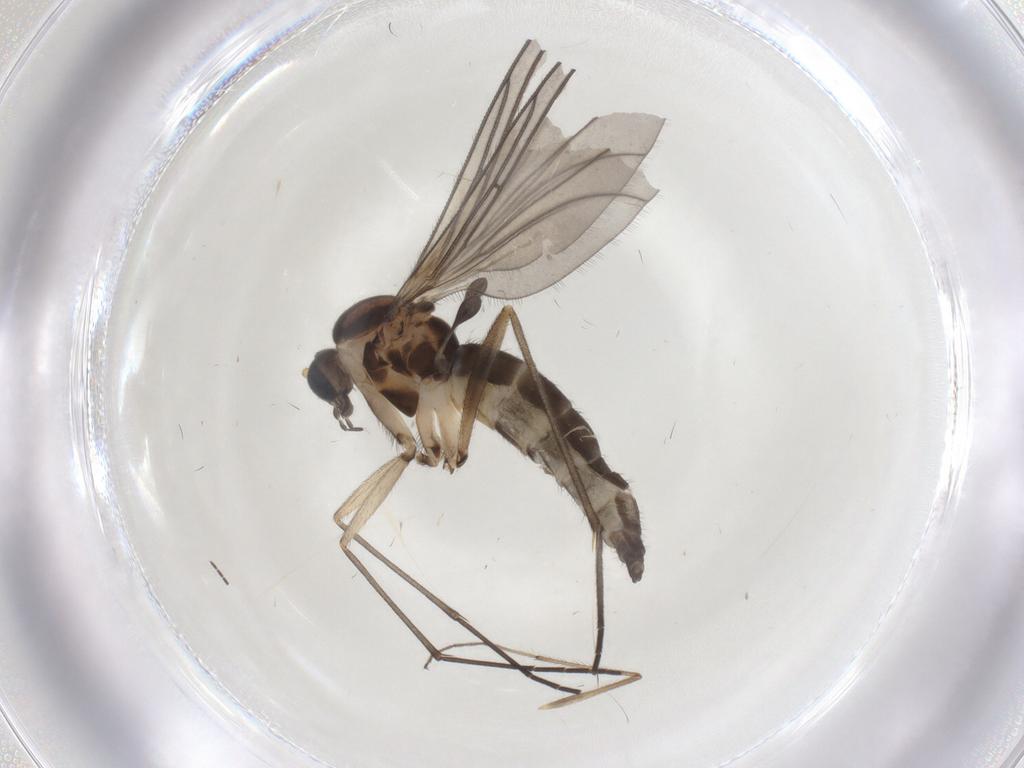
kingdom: Animalia
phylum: Arthropoda
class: Insecta
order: Diptera
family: Sciaridae
